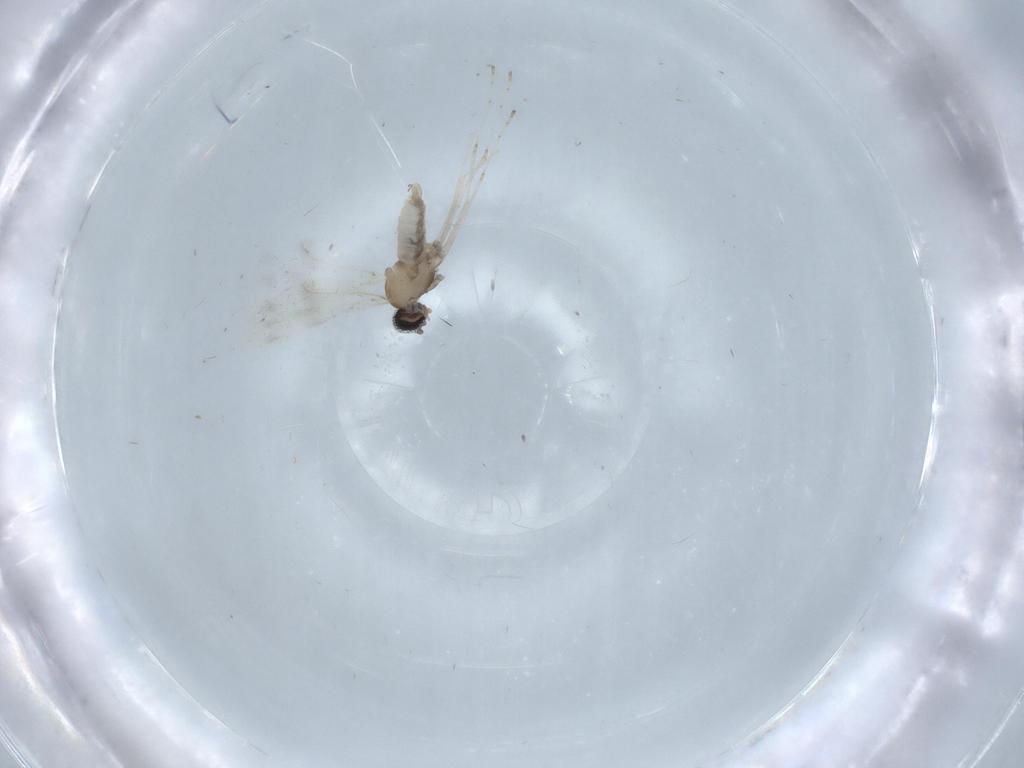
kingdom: Animalia
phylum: Arthropoda
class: Insecta
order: Diptera
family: Cecidomyiidae
